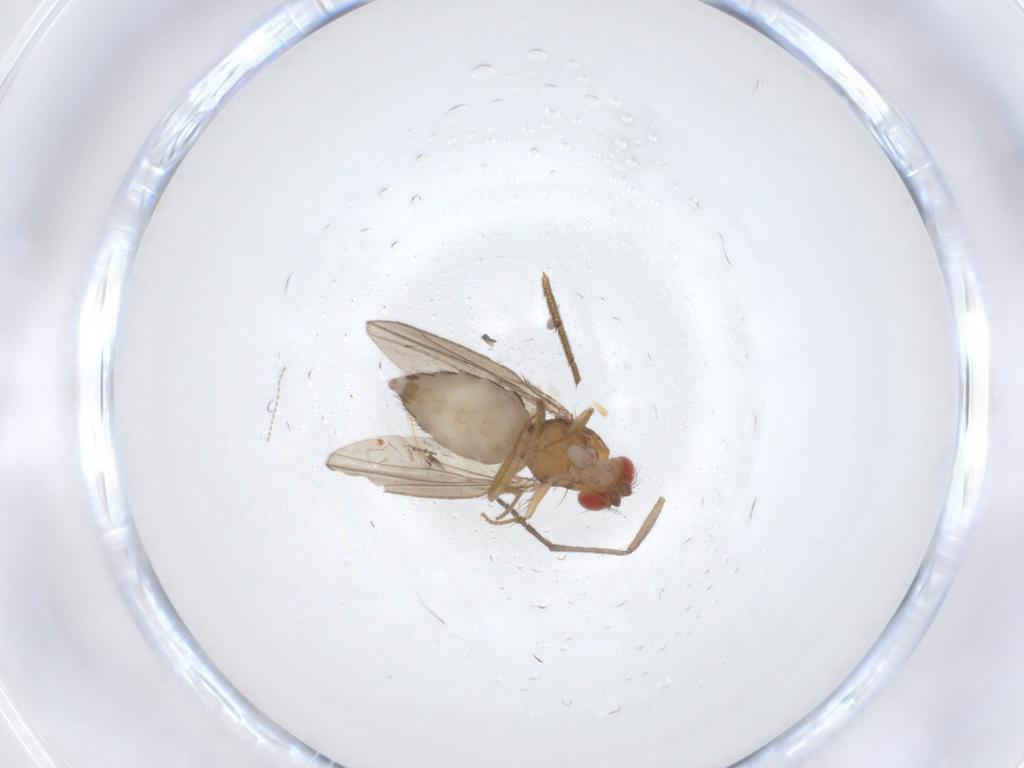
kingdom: Animalia
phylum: Arthropoda
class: Insecta
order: Diptera
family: Drosophilidae
